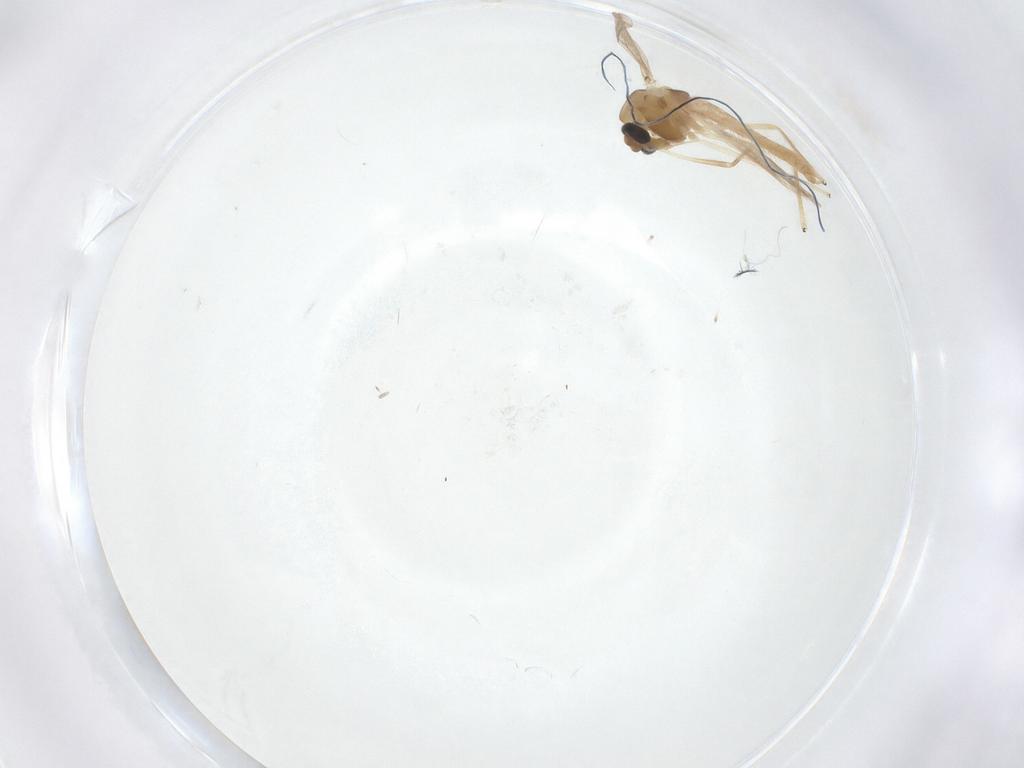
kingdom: Animalia
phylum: Arthropoda
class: Insecta
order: Diptera
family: Chironomidae
